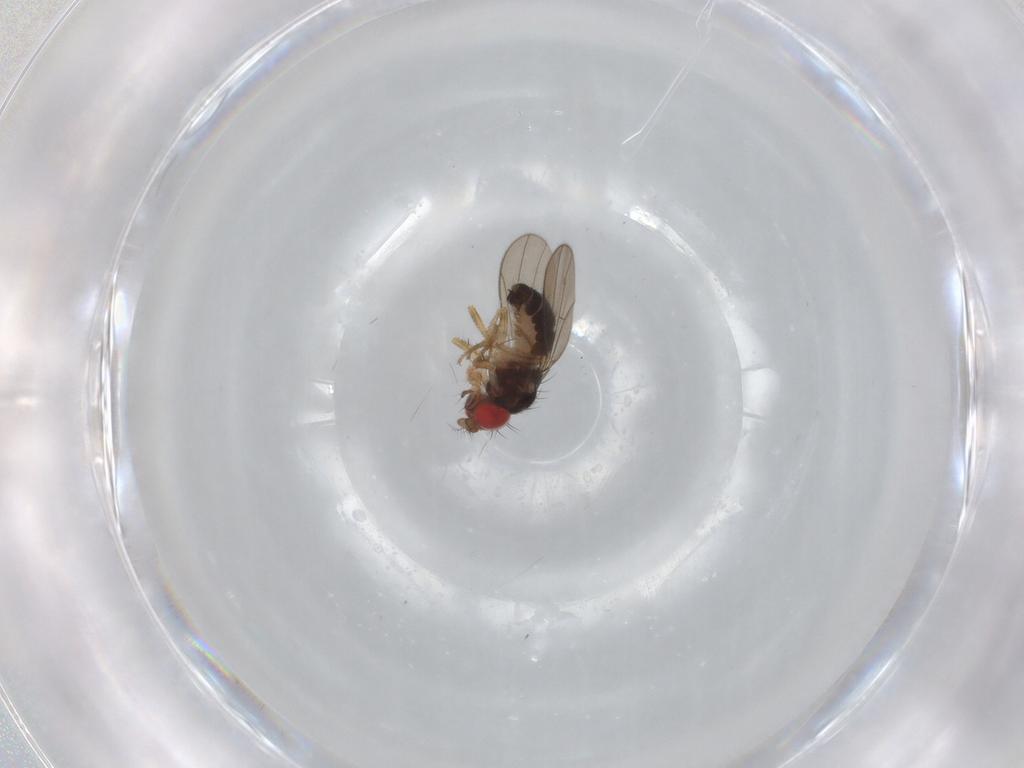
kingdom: Animalia
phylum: Arthropoda
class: Insecta
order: Diptera
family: Drosophilidae
